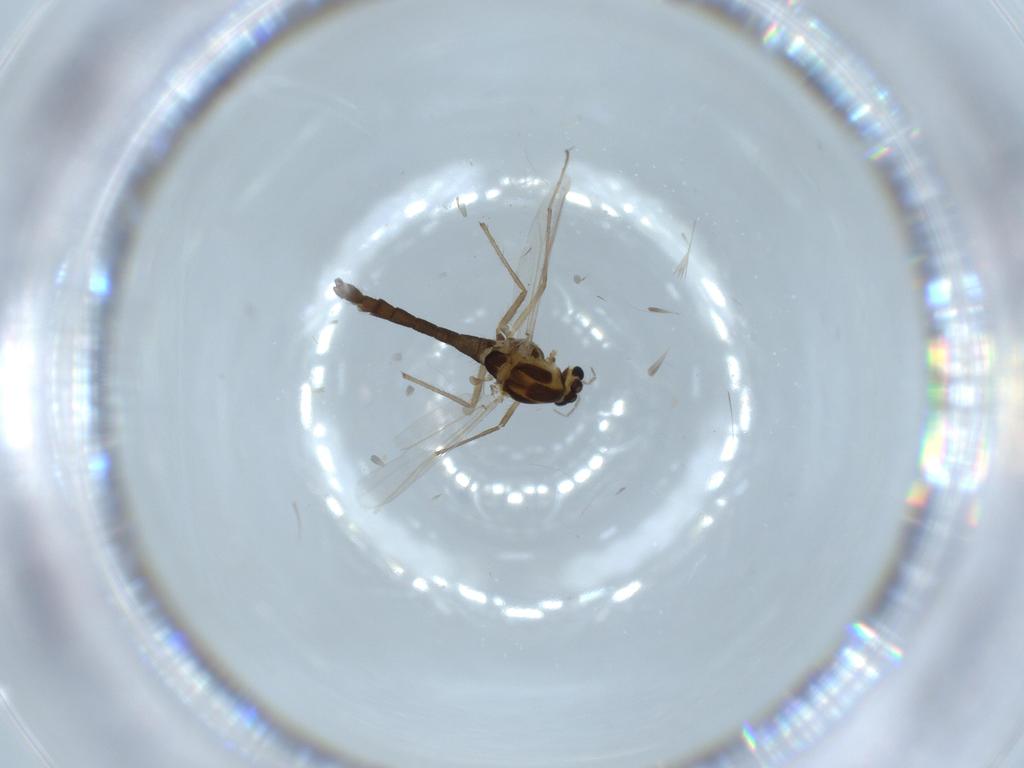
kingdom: Animalia
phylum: Arthropoda
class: Insecta
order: Diptera
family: Chironomidae
